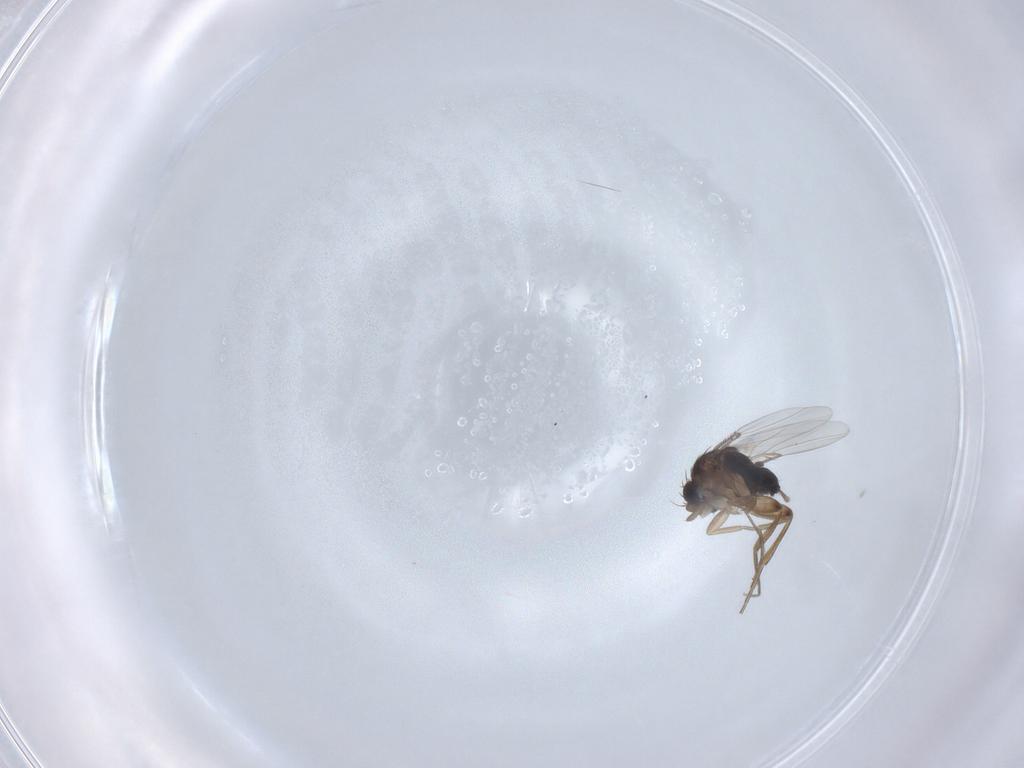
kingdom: Animalia
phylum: Arthropoda
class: Insecta
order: Diptera
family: Phoridae
